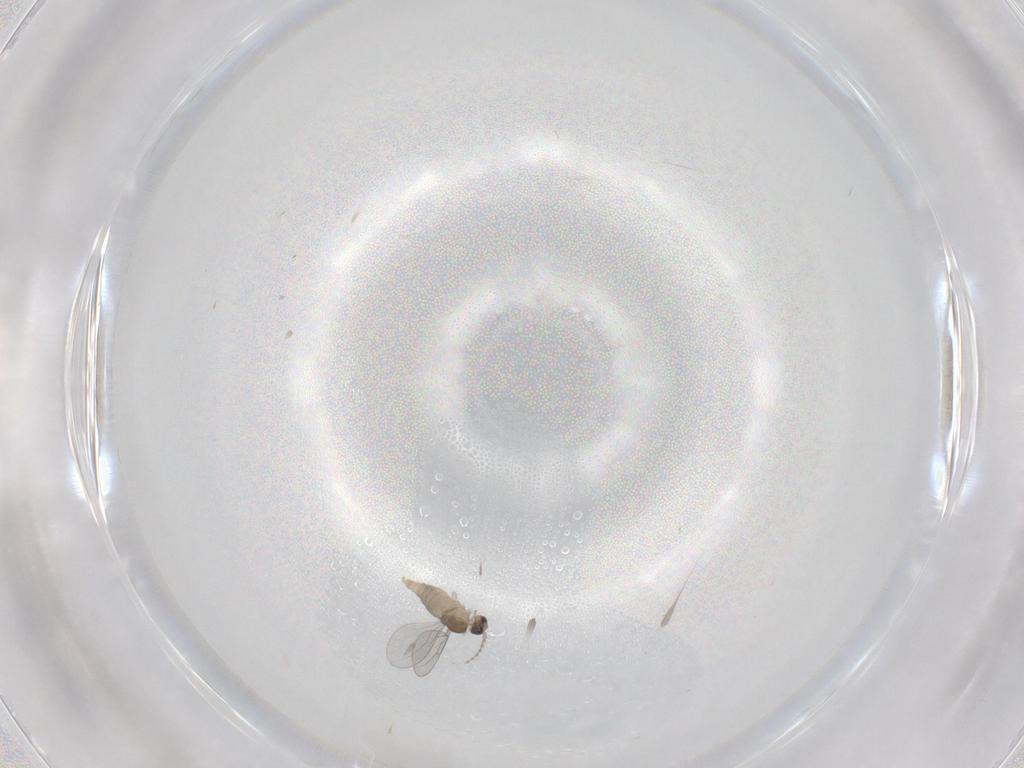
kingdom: Animalia
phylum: Arthropoda
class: Insecta
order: Diptera
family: Cecidomyiidae
